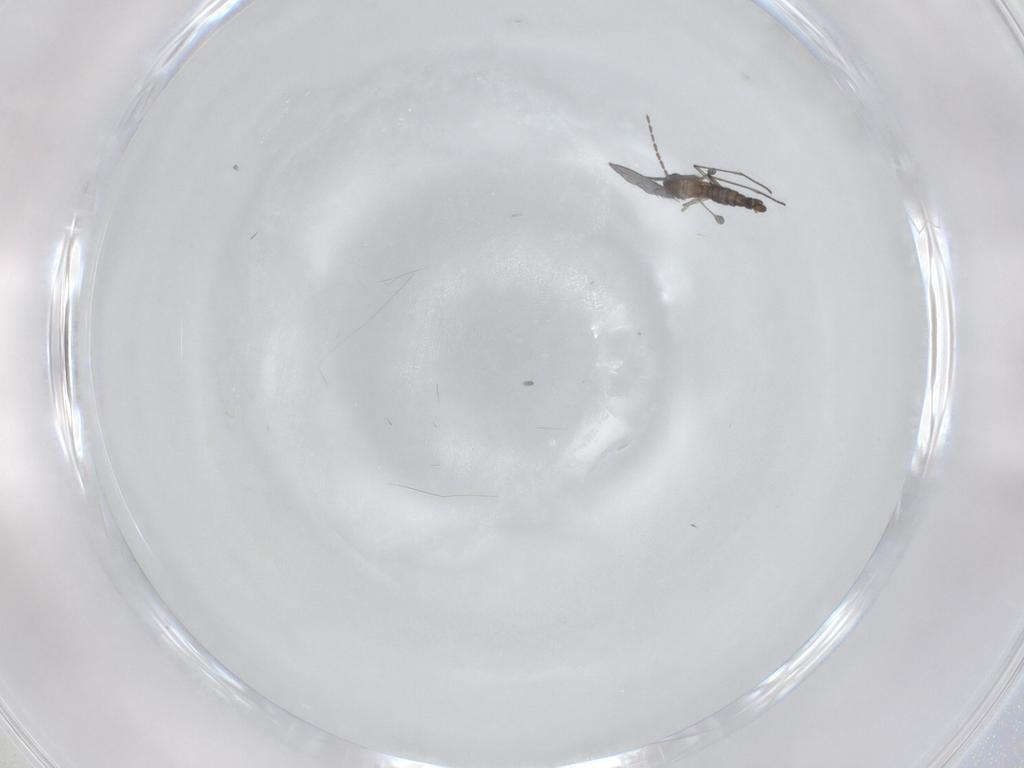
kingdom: Animalia
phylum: Arthropoda
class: Insecta
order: Diptera
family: Sciaridae
